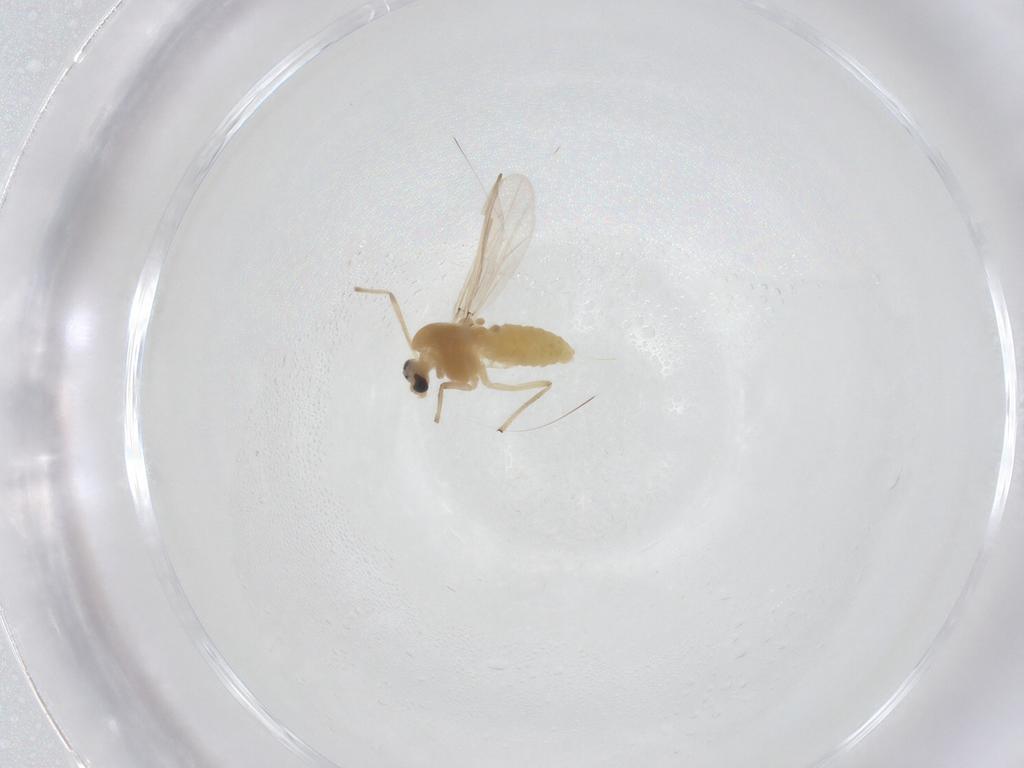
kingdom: Animalia
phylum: Arthropoda
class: Insecta
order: Diptera
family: Chironomidae
